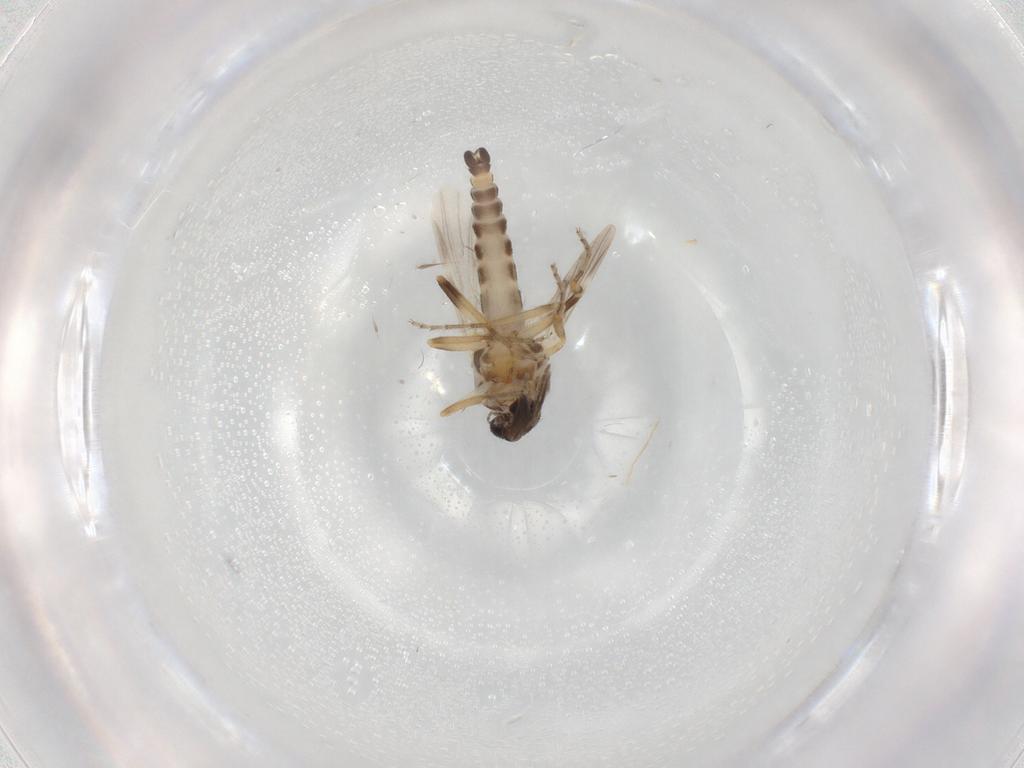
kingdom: Animalia
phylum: Arthropoda
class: Insecta
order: Diptera
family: Ceratopogonidae
